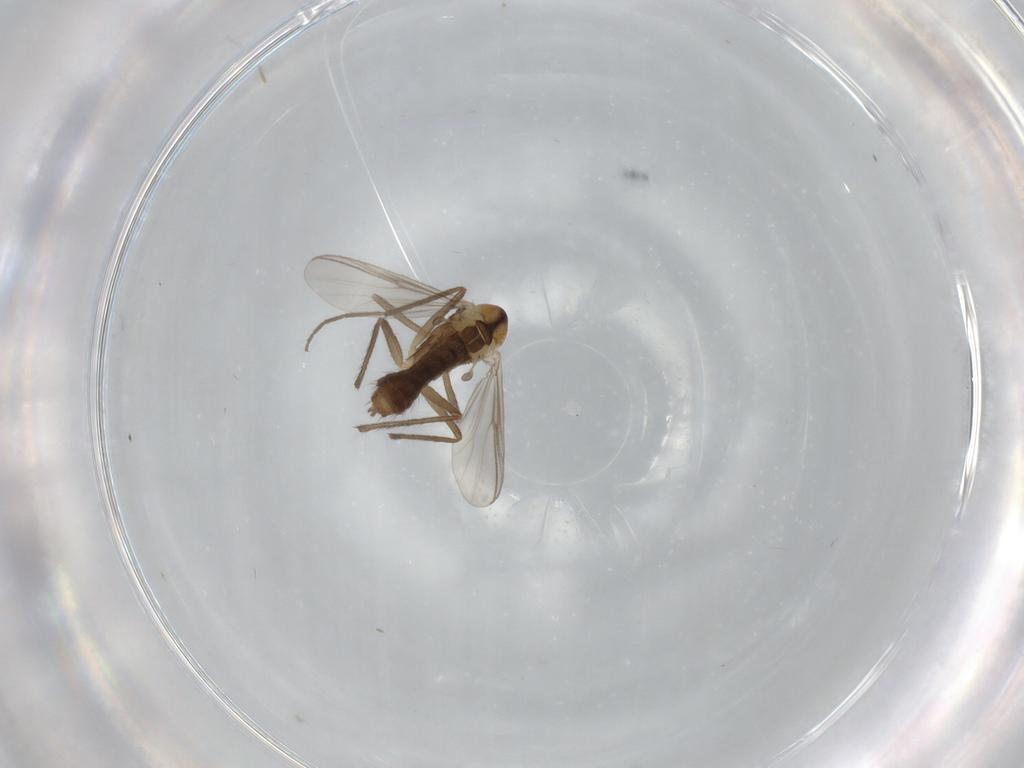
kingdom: Animalia
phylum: Arthropoda
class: Insecta
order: Diptera
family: Chironomidae
